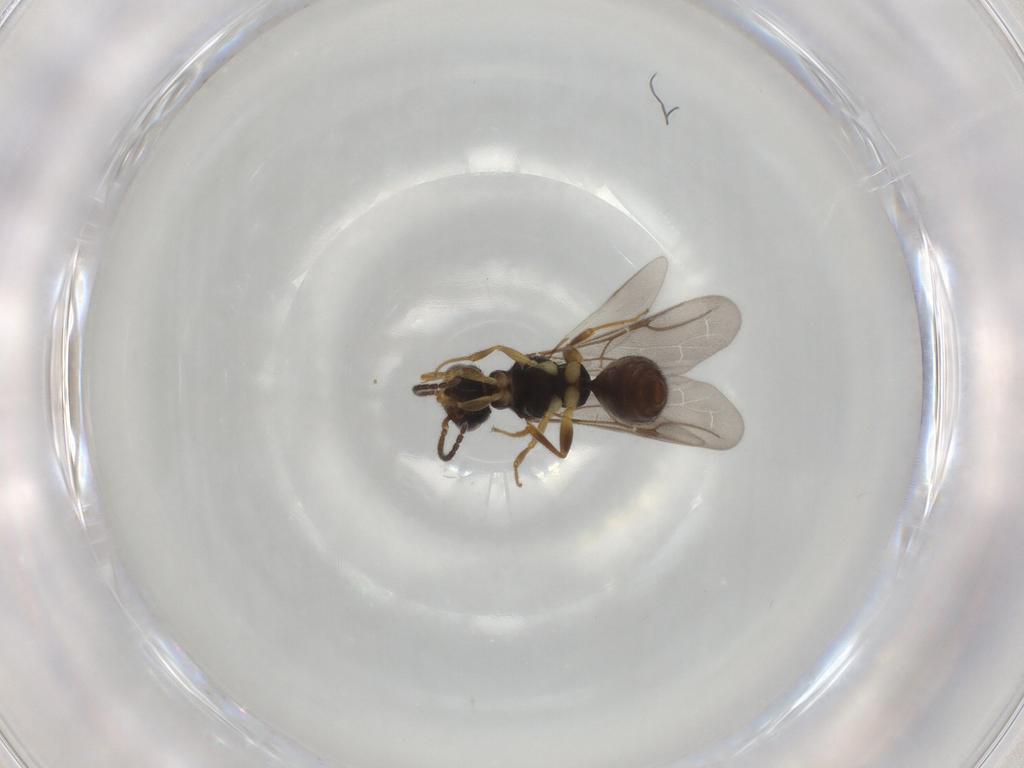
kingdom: Animalia
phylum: Arthropoda
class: Insecta
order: Hymenoptera
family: Bethylidae
